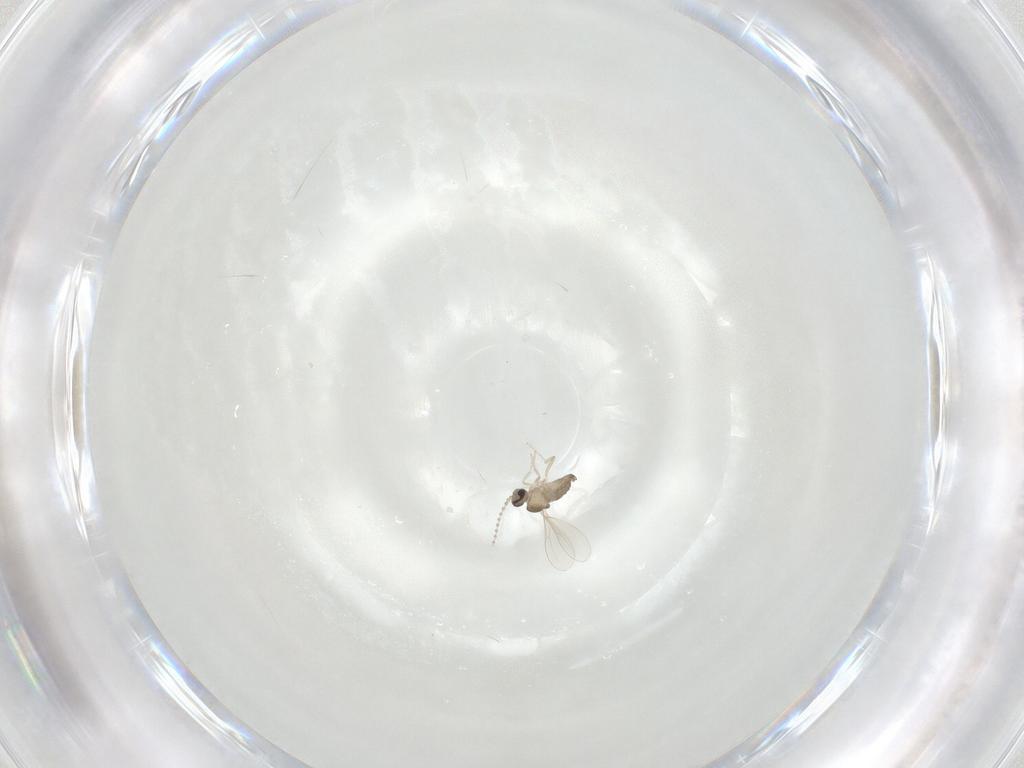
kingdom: Animalia
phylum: Arthropoda
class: Insecta
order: Diptera
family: Cecidomyiidae
